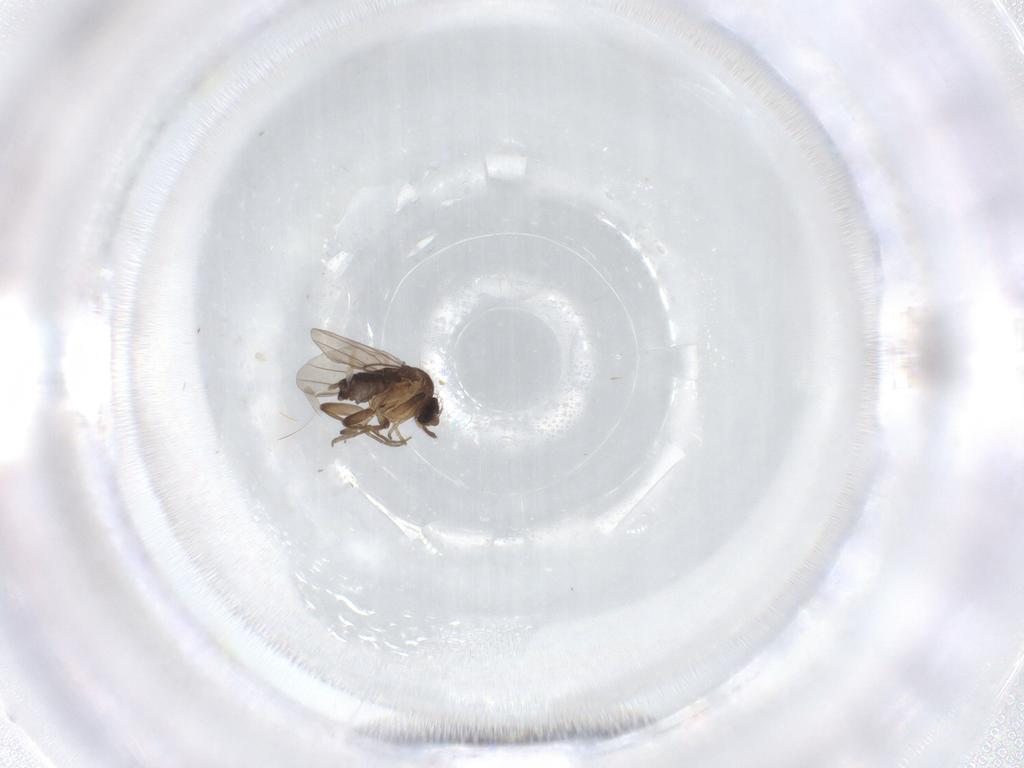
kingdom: Animalia
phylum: Arthropoda
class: Insecta
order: Diptera
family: Phoridae
